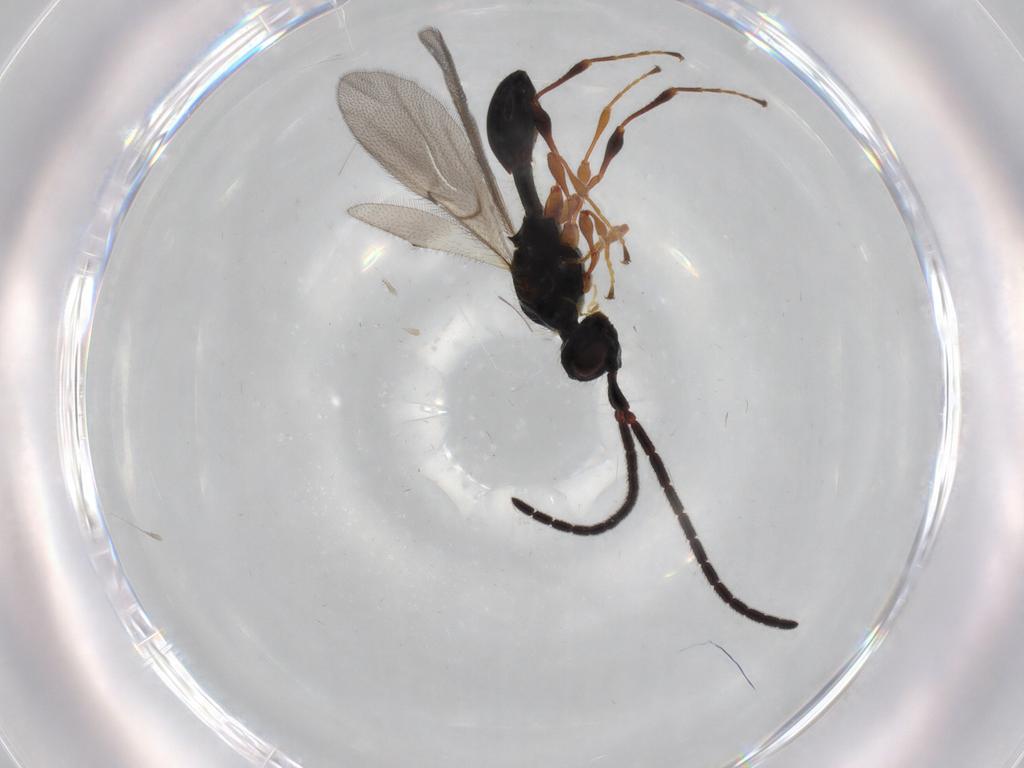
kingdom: Animalia
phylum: Arthropoda
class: Insecta
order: Hymenoptera
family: Diapriidae
